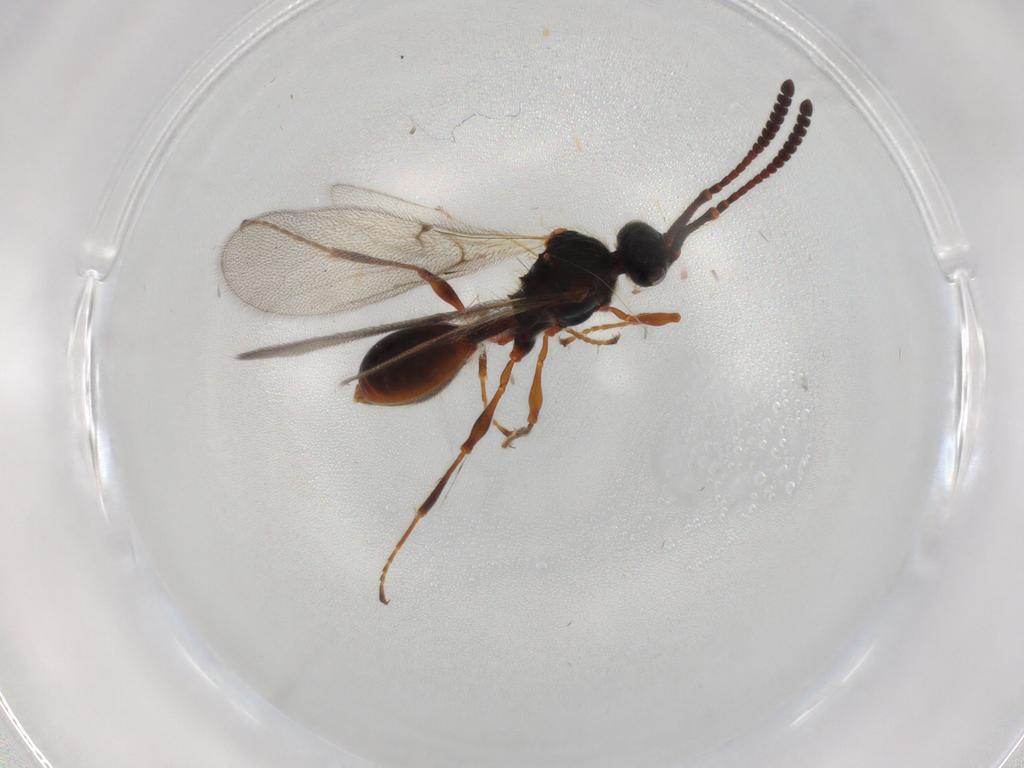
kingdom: Animalia
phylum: Arthropoda
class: Insecta
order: Hymenoptera
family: Diapriidae
